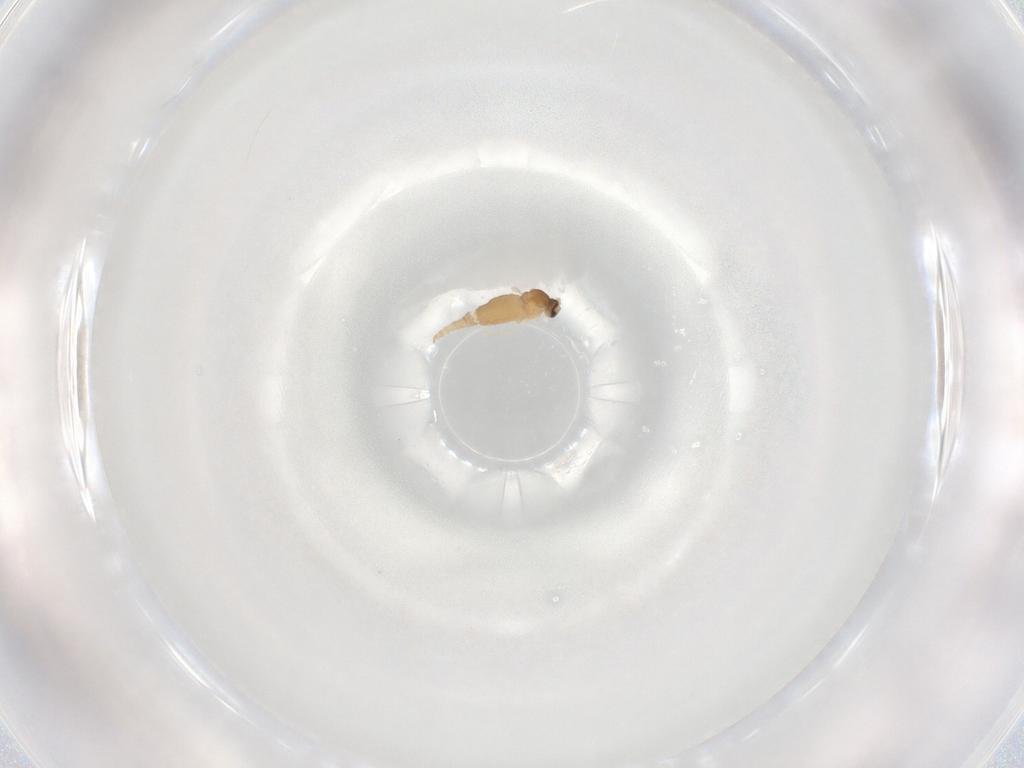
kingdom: Animalia
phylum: Arthropoda
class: Insecta
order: Diptera
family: Cecidomyiidae
